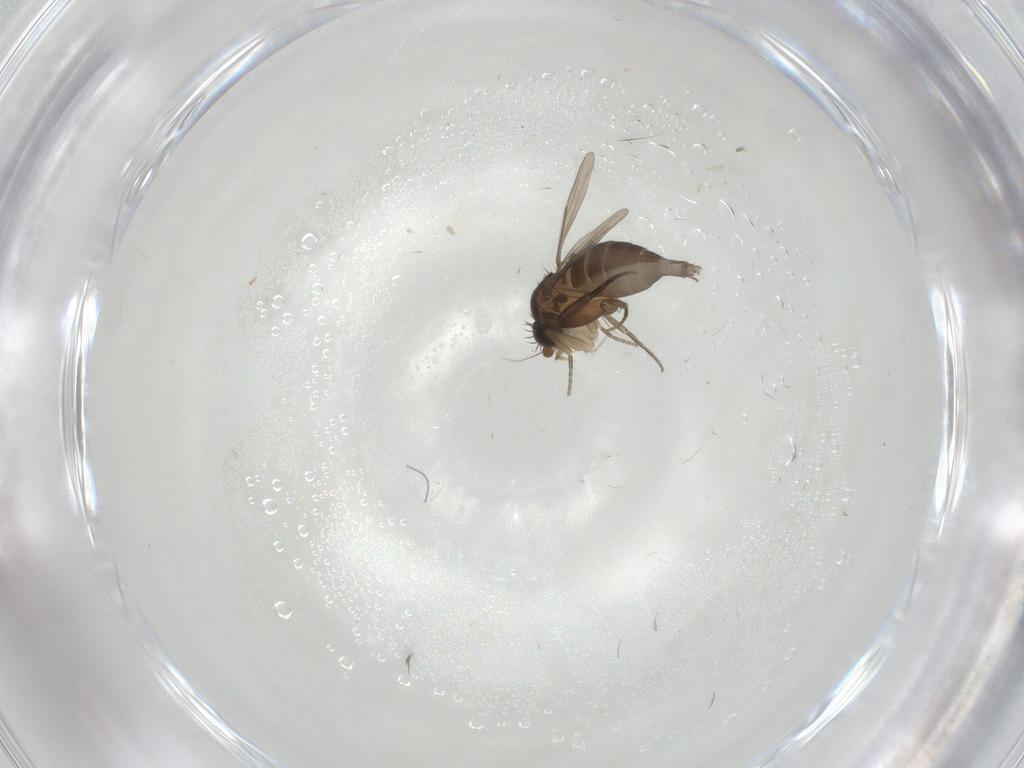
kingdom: Animalia
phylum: Arthropoda
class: Insecta
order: Diptera
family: Phoridae
